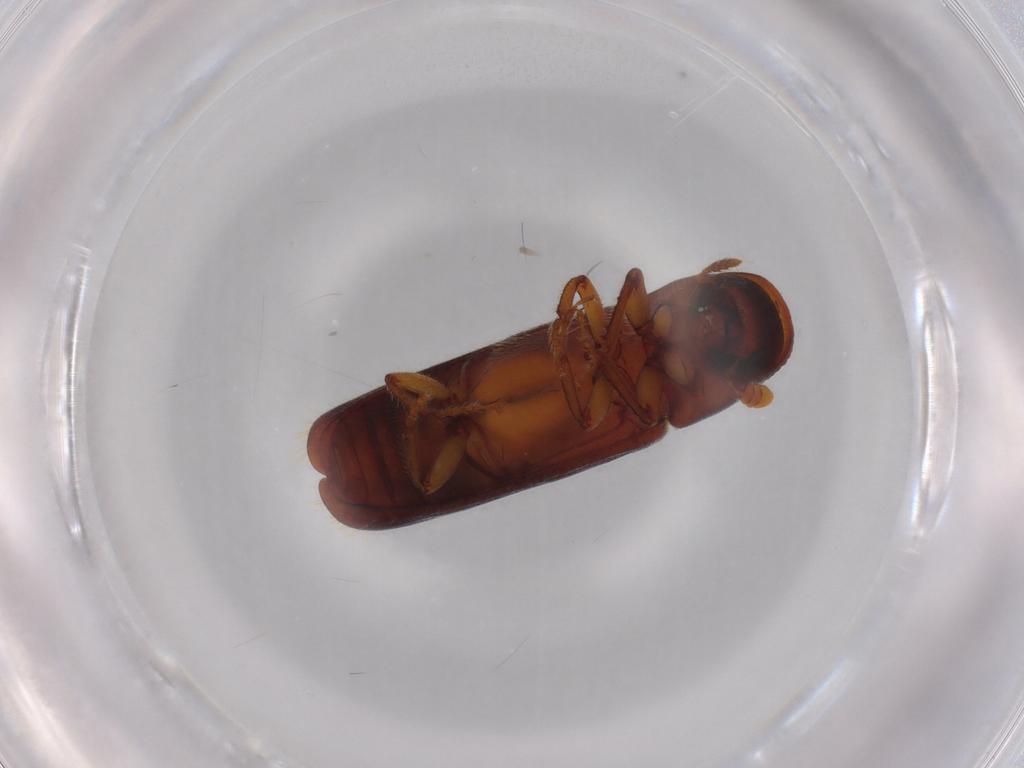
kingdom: Animalia
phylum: Arthropoda
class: Insecta
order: Coleoptera
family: Curculionidae
